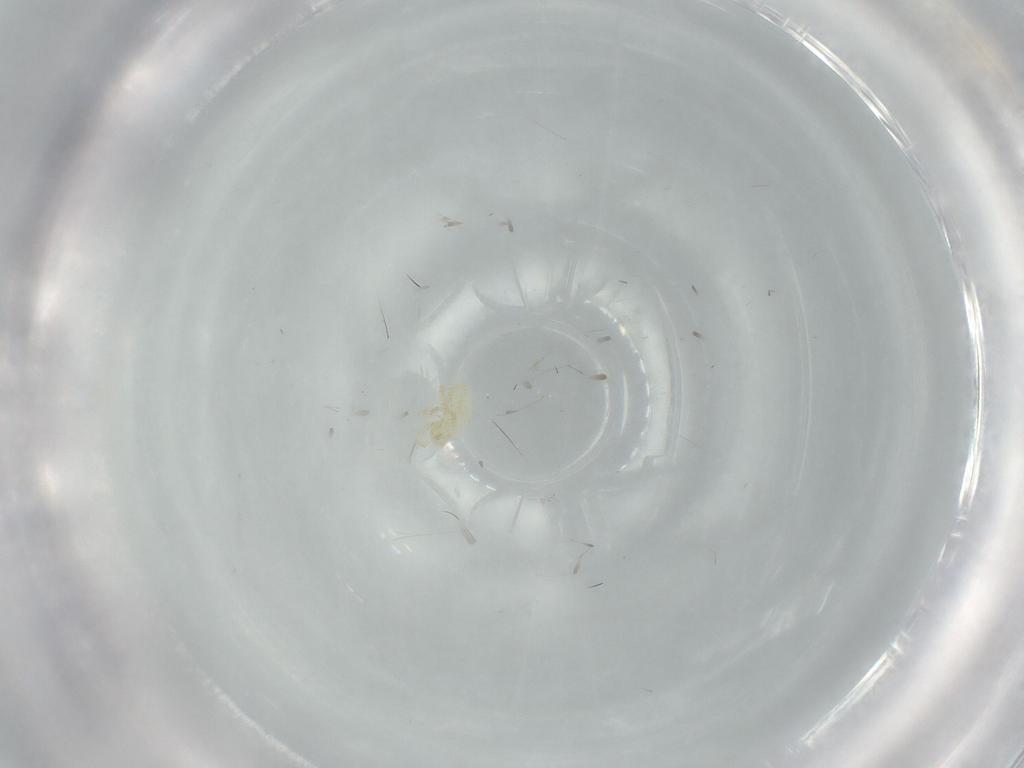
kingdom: Animalia
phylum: Arthropoda
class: Arachnida
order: Trombidiformes
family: Podothrombiidae
